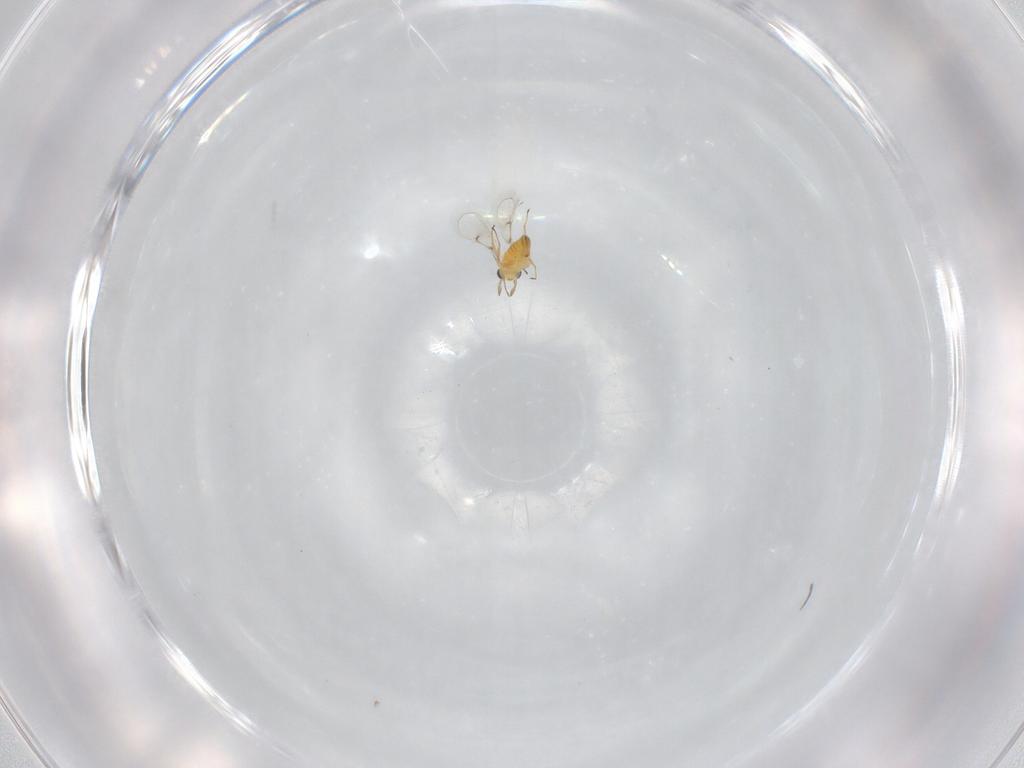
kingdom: Animalia
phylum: Arthropoda
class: Insecta
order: Hymenoptera
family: Trichogrammatidae
